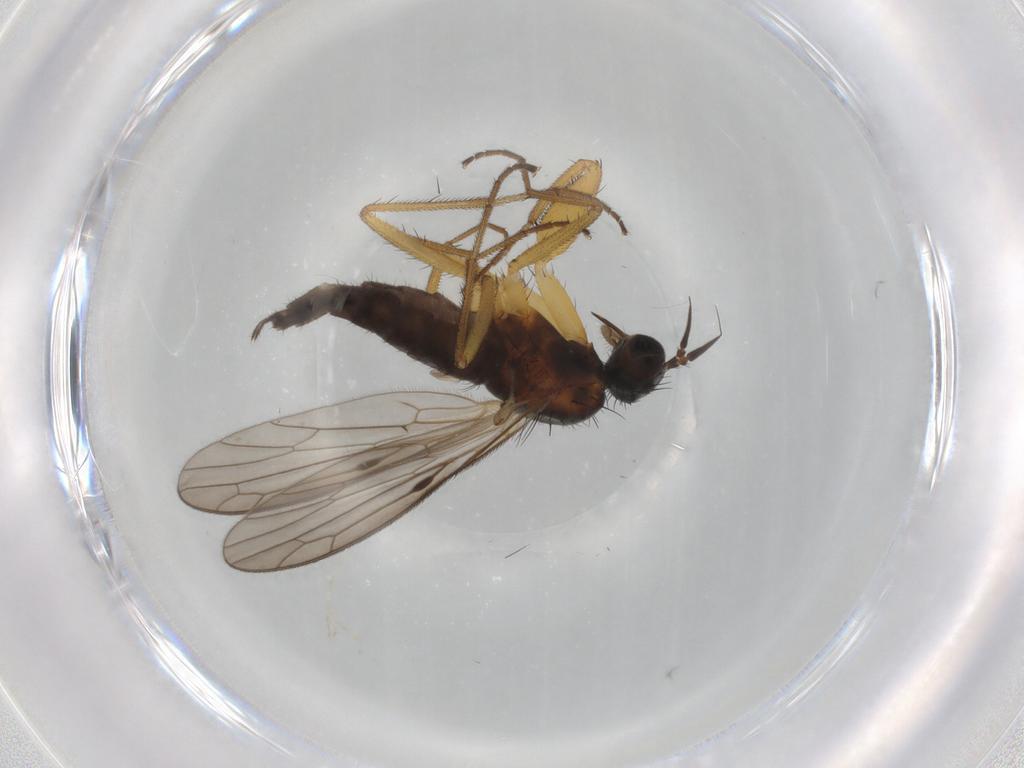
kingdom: Animalia
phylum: Arthropoda
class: Insecta
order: Diptera
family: Empididae
